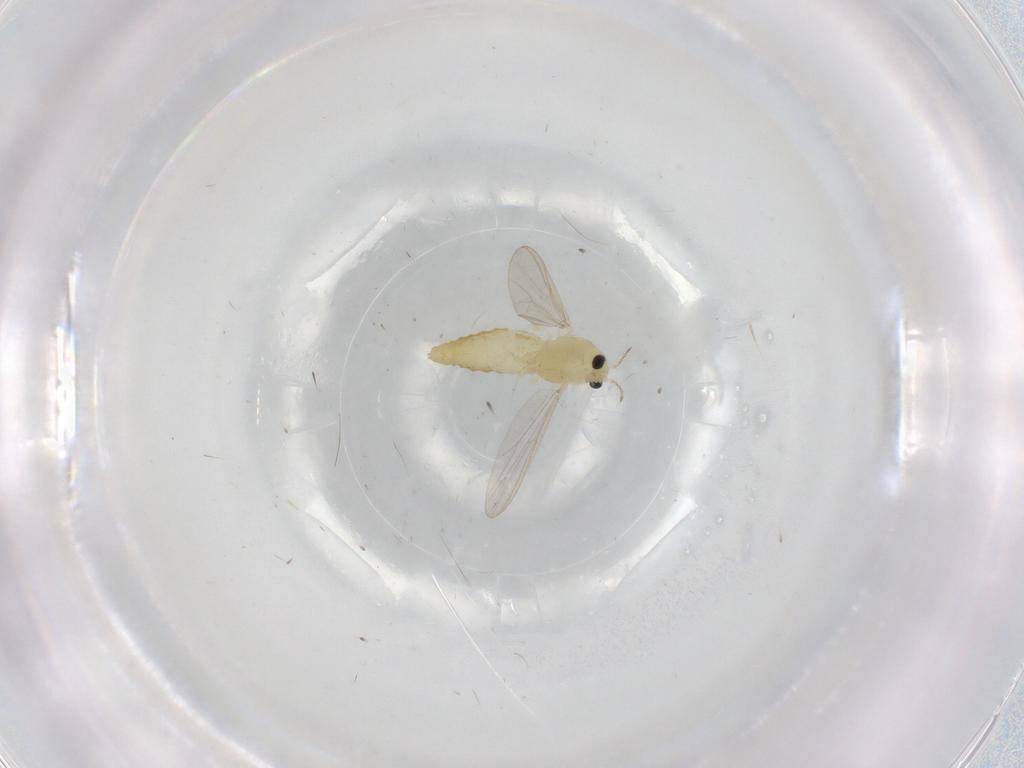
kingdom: Animalia
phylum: Arthropoda
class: Insecta
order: Diptera
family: Chironomidae
